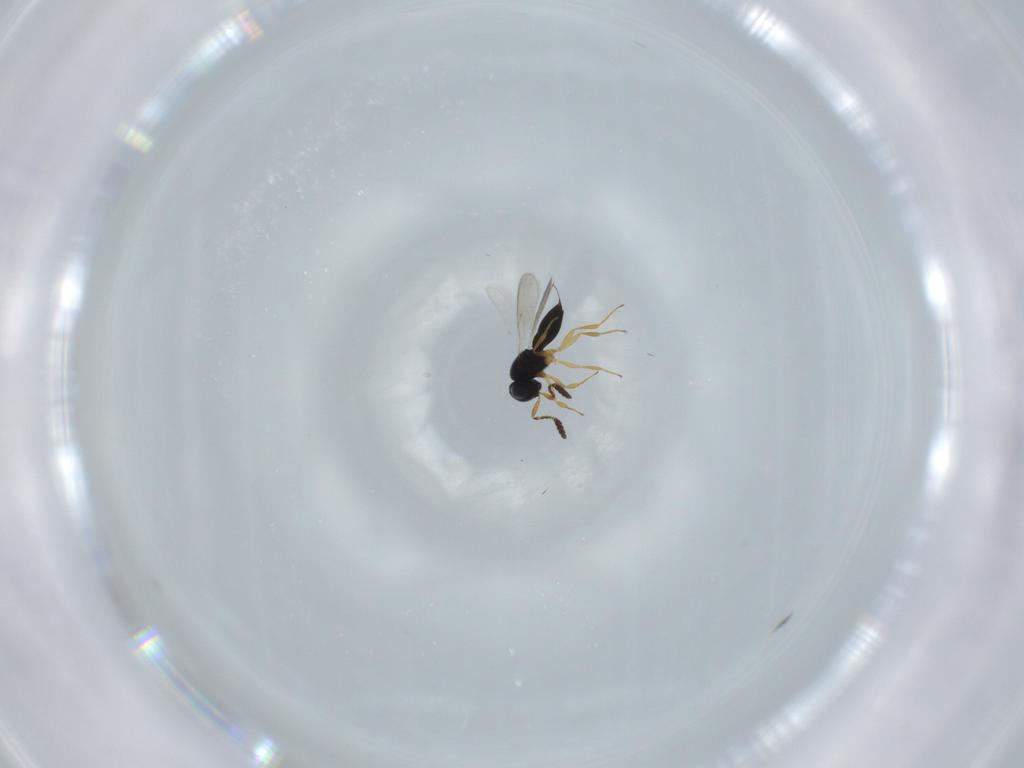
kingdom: Animalia
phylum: Arthropoda
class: Insecta
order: Hymenoptera
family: Scelionidae
